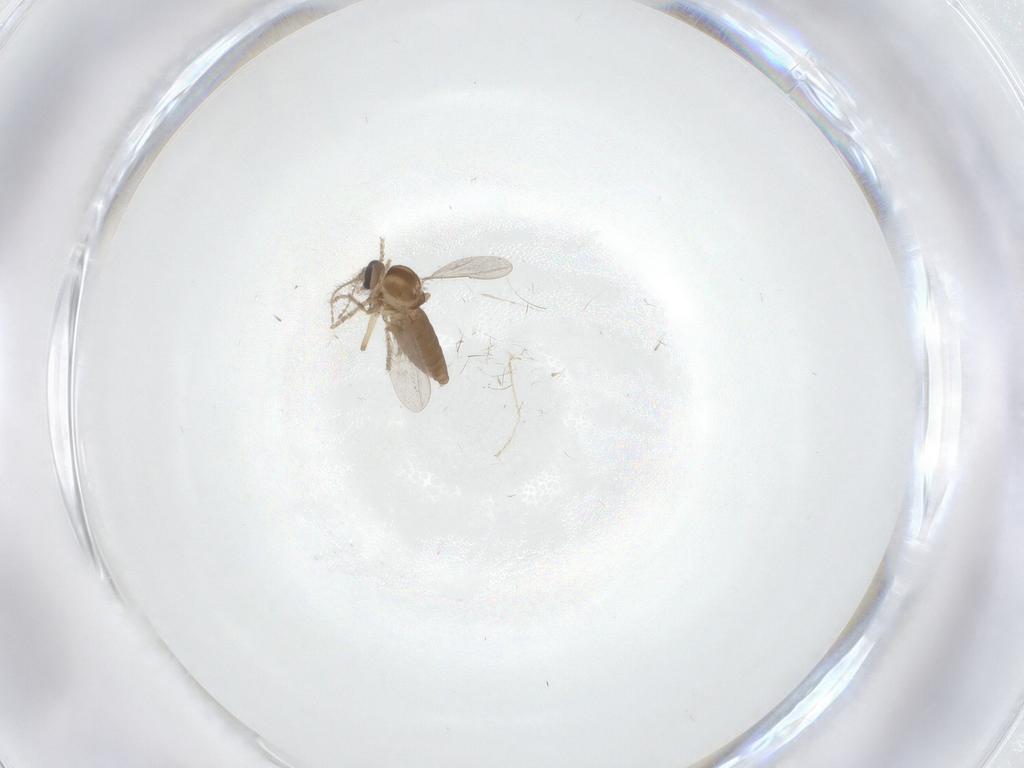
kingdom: Animalia
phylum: Arthropoda
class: Insecta
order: Diptera
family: Ceratopogonidae
